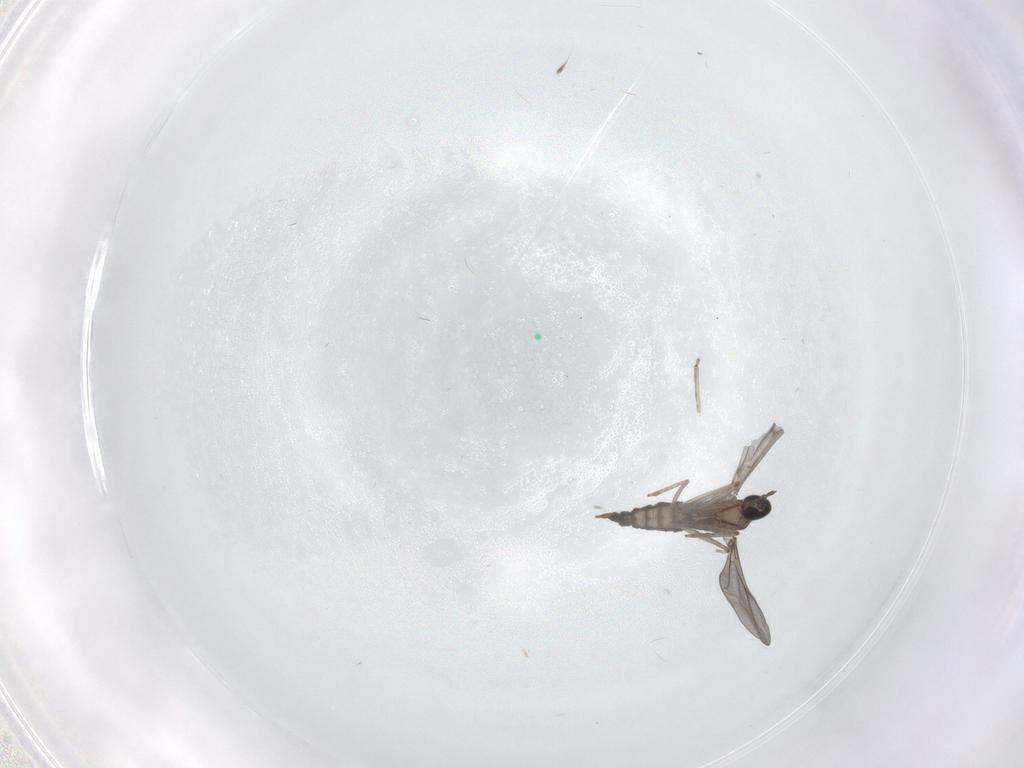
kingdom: Animalia
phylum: Arthropoda
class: Insecta
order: Diptera
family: Cecidomyiidae
